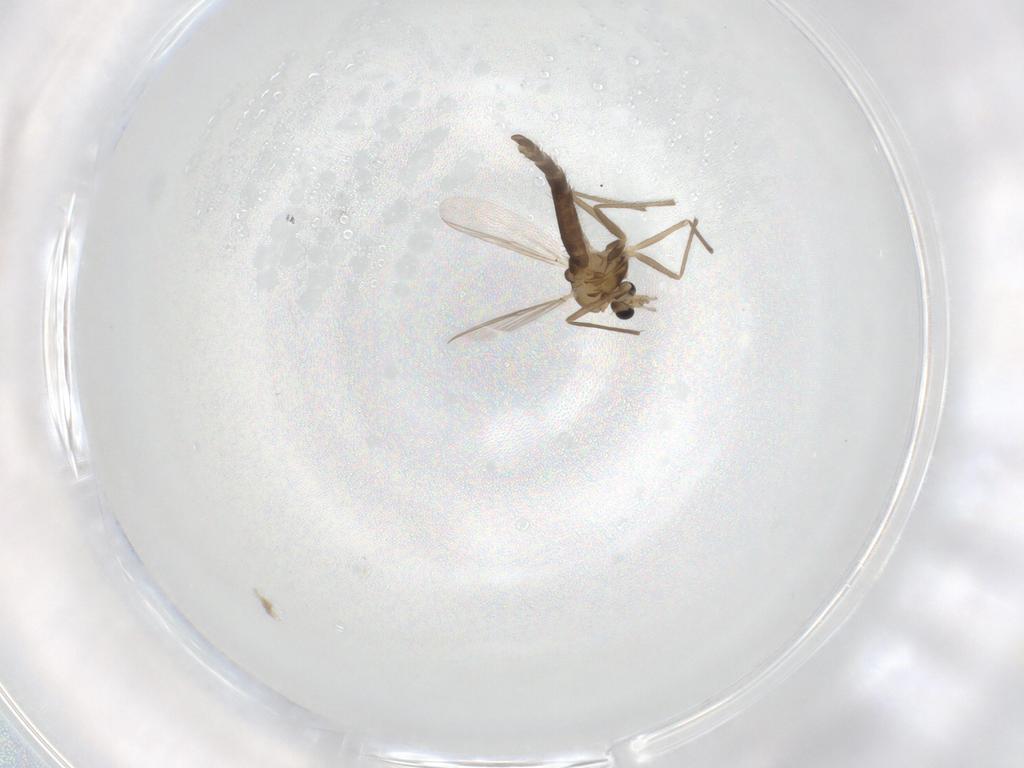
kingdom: Animalia
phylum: Arthropoda
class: Insecta
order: Diptera
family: Chironomidae
